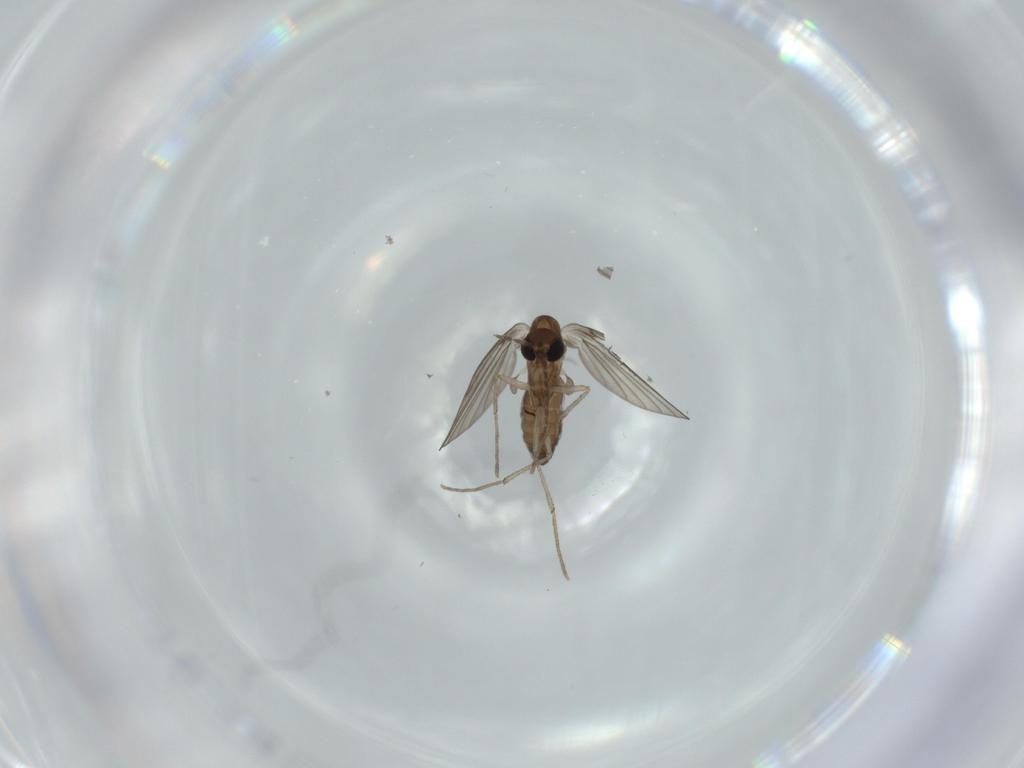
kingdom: Animalia
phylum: Arthropoda
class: Insecta
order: Diptera
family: Psychodidae
